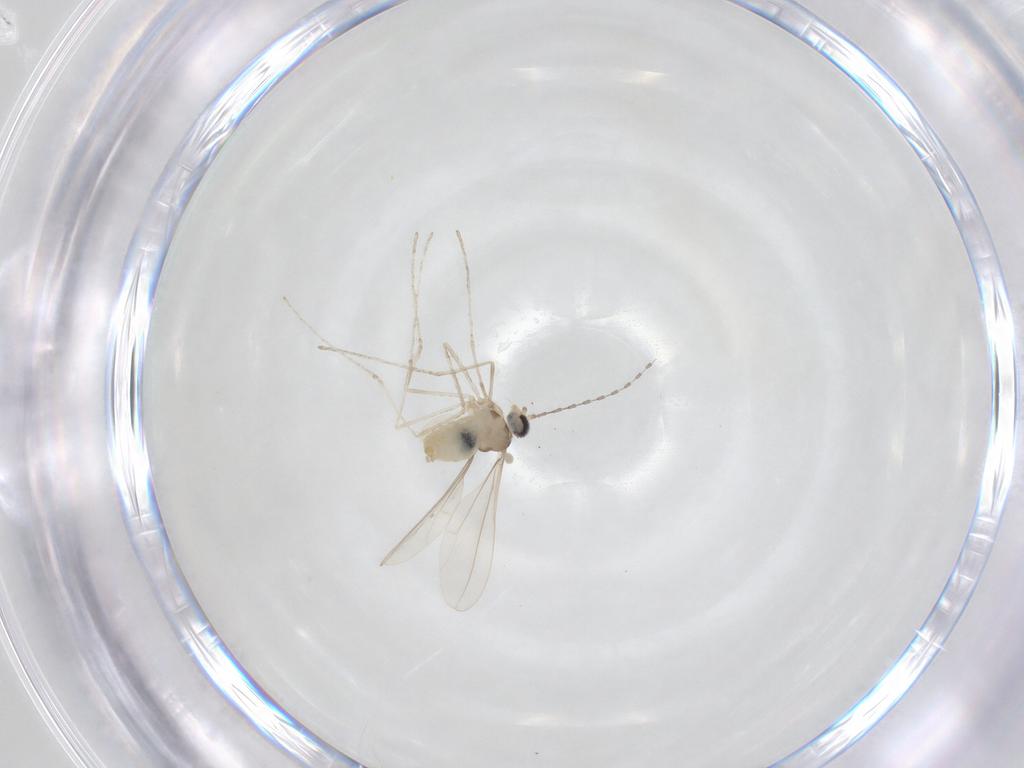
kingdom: Animalia
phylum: Arthropoda
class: Insecta
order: Diptera
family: Cecidomyiidae
